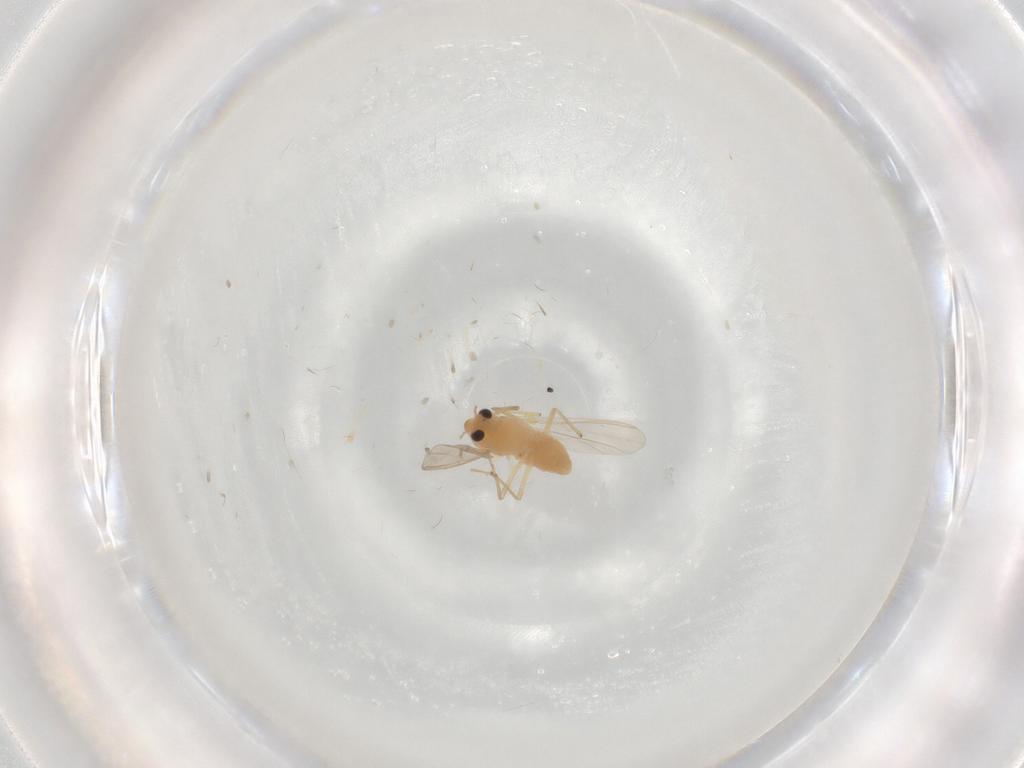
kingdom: Animalia
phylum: Arthropoda
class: Insecta
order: Diptera
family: Chironomidae
